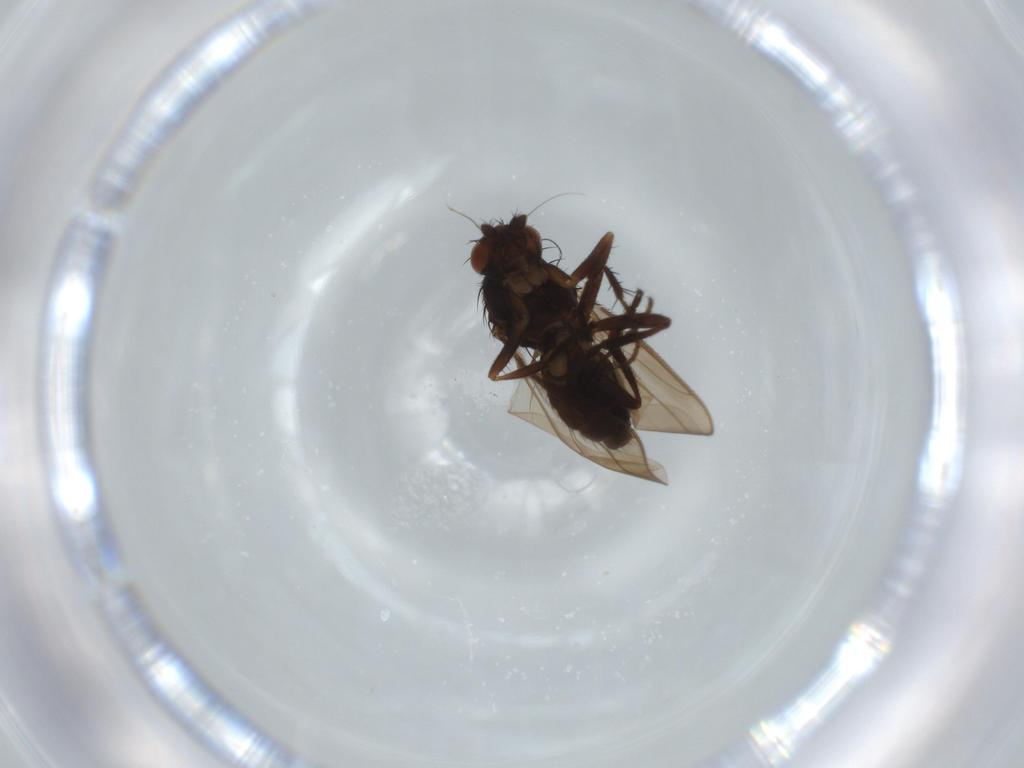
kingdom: Animalia
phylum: Arthropoda
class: Insecta
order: Diptera
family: Sphaeroceridae
